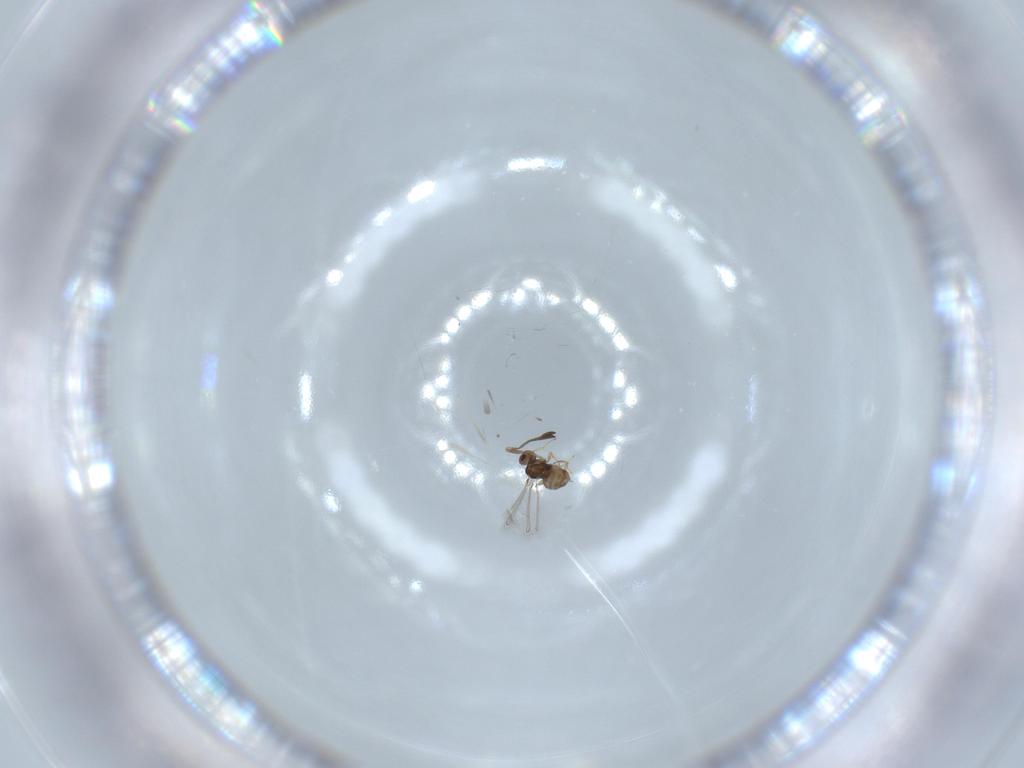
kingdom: Animalia
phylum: Arthropoda
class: Insecta
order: Hymenoptera
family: Mymaridae
